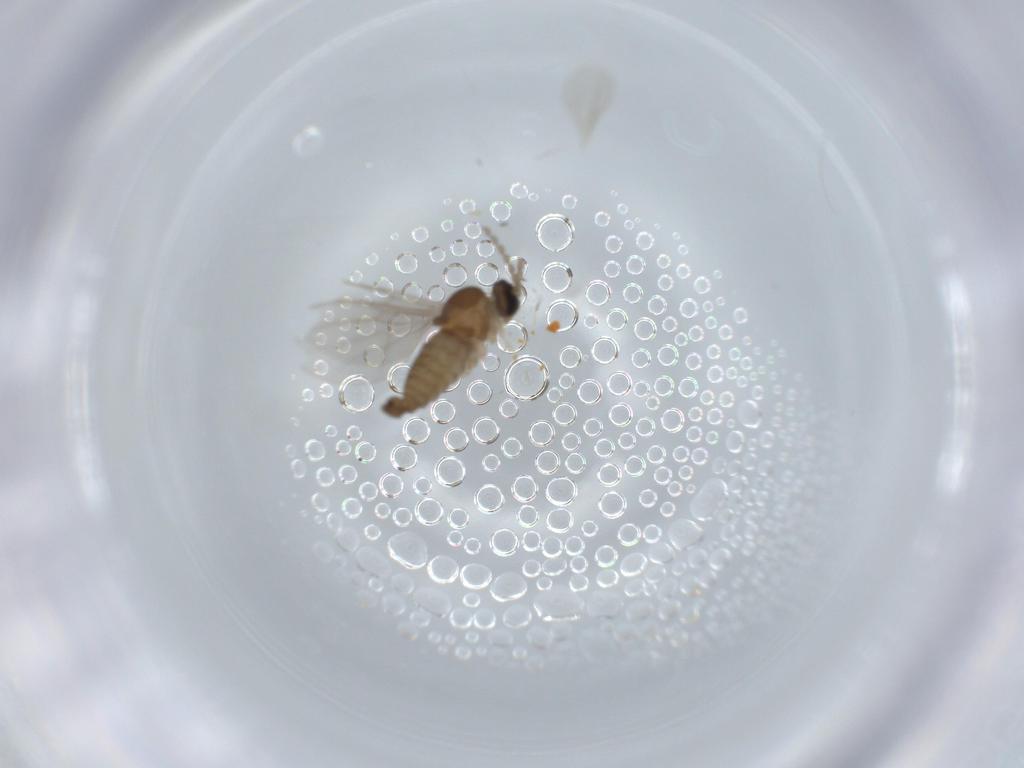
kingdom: Animalia
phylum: Arthropoda
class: Insecta
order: Diptera
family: Cecidomyiidae
